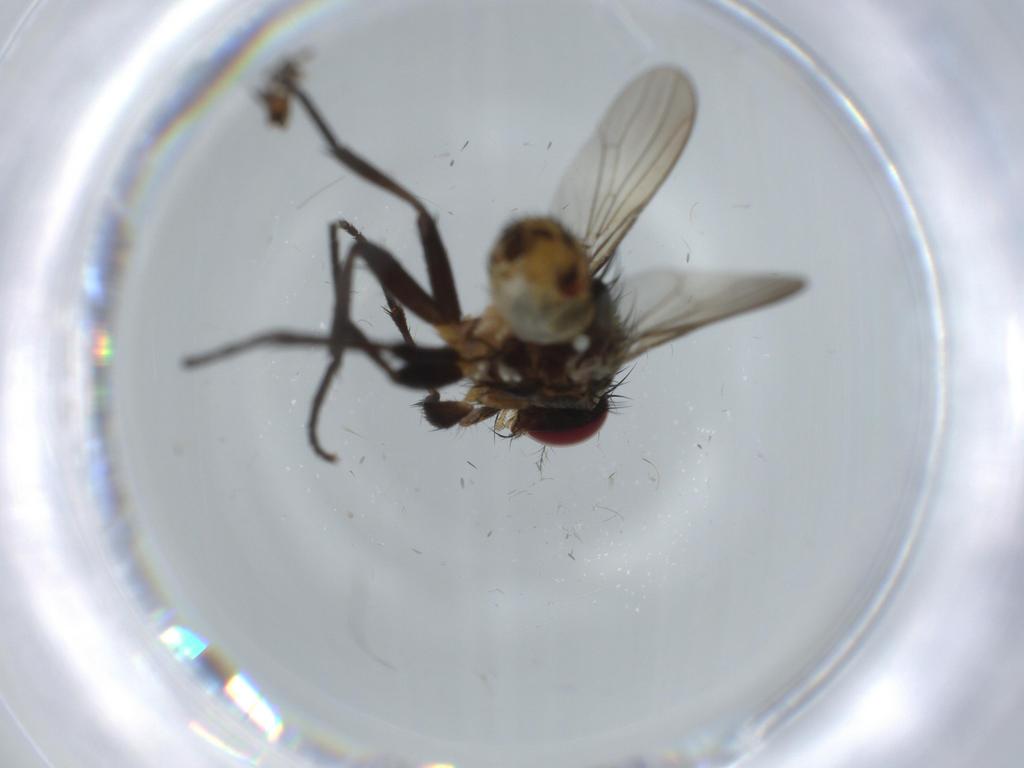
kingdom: Animalia
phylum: Arthropoda
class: Insecta
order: Diptera
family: Anthomyiidae
